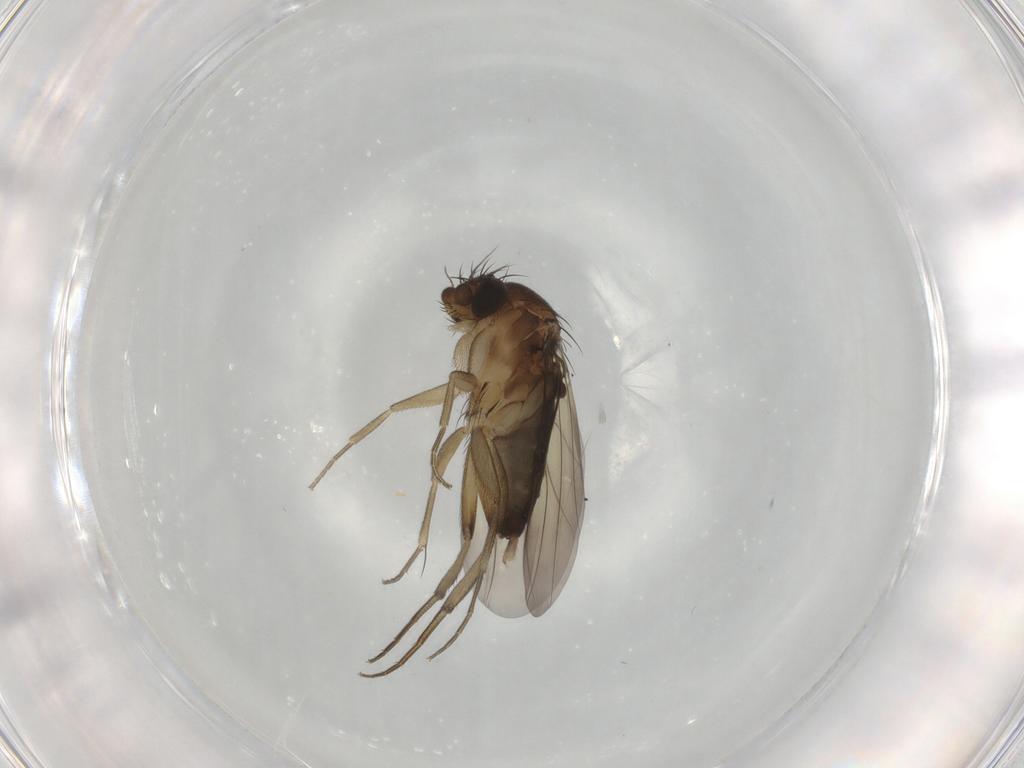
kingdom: Animalia
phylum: Arthropoda
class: Insecta
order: Diptera
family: Phoridae
